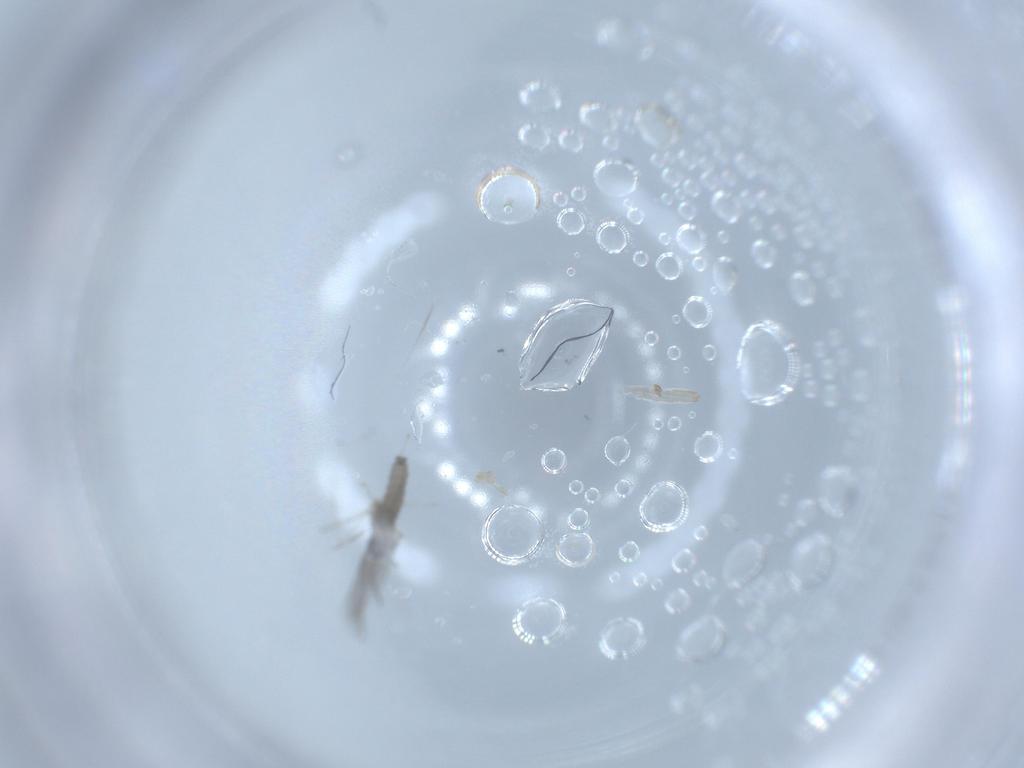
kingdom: Animalia
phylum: Arthropoda
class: Insecta
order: Diptera
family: Cecidomyiidae
